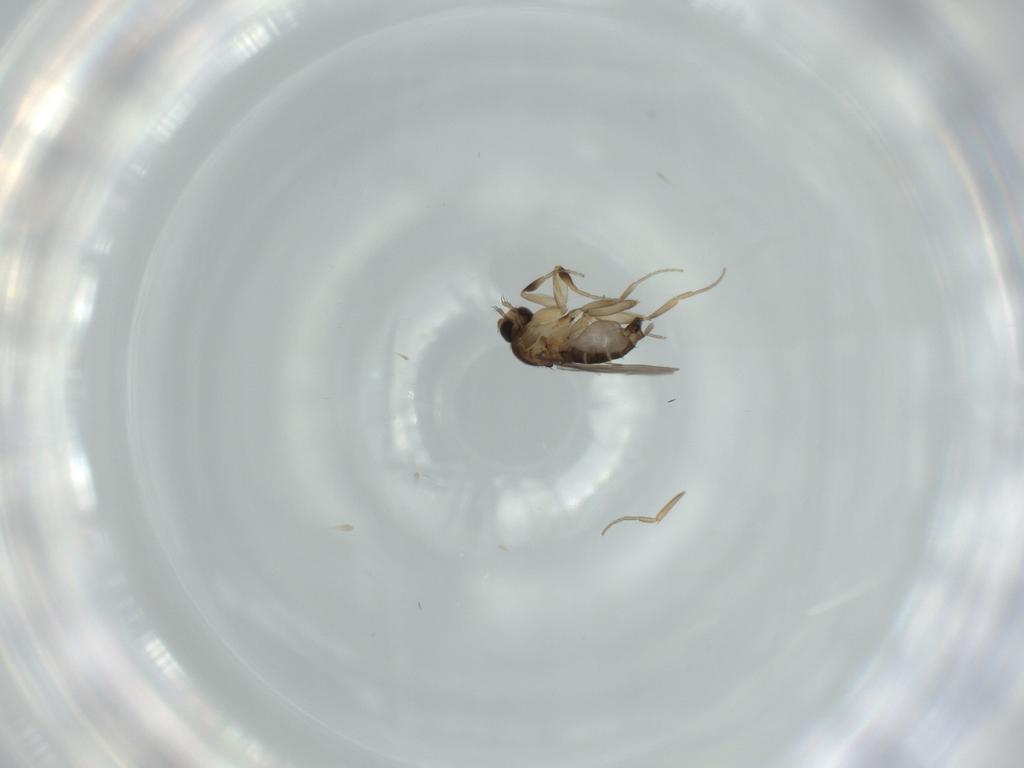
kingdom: Animalia
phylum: Arthropoda
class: Insecta
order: Diptera
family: Phoridae
